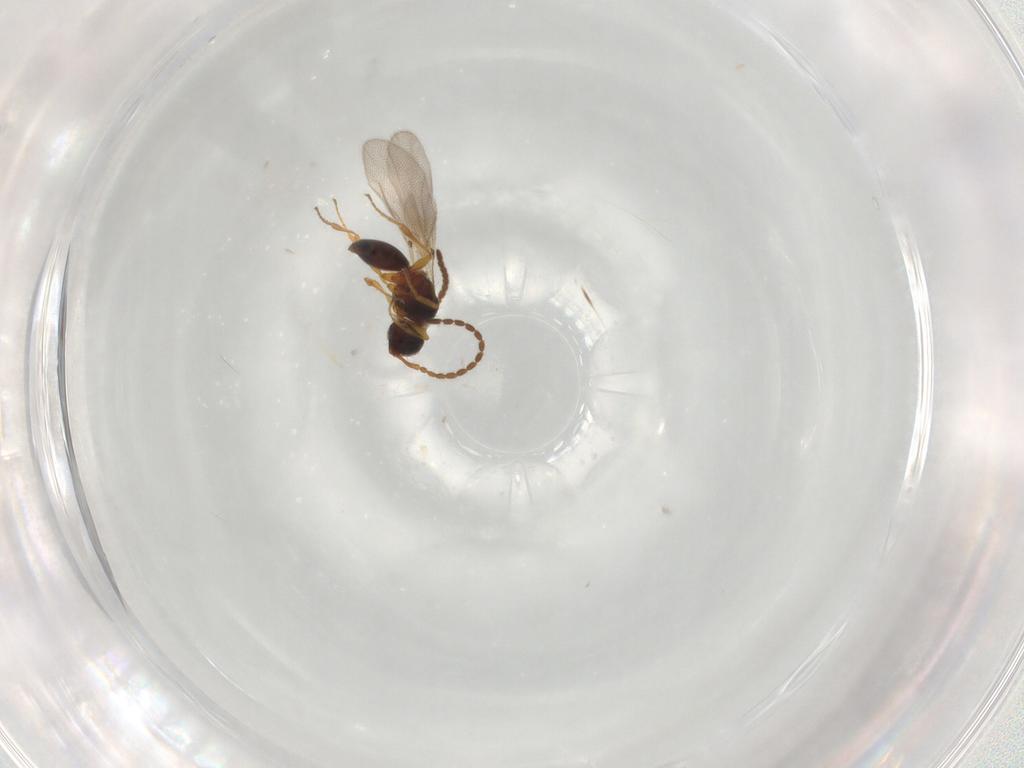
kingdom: Animalia
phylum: Arthropoda
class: Insecta
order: Hymenoptera
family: Diapriidae
